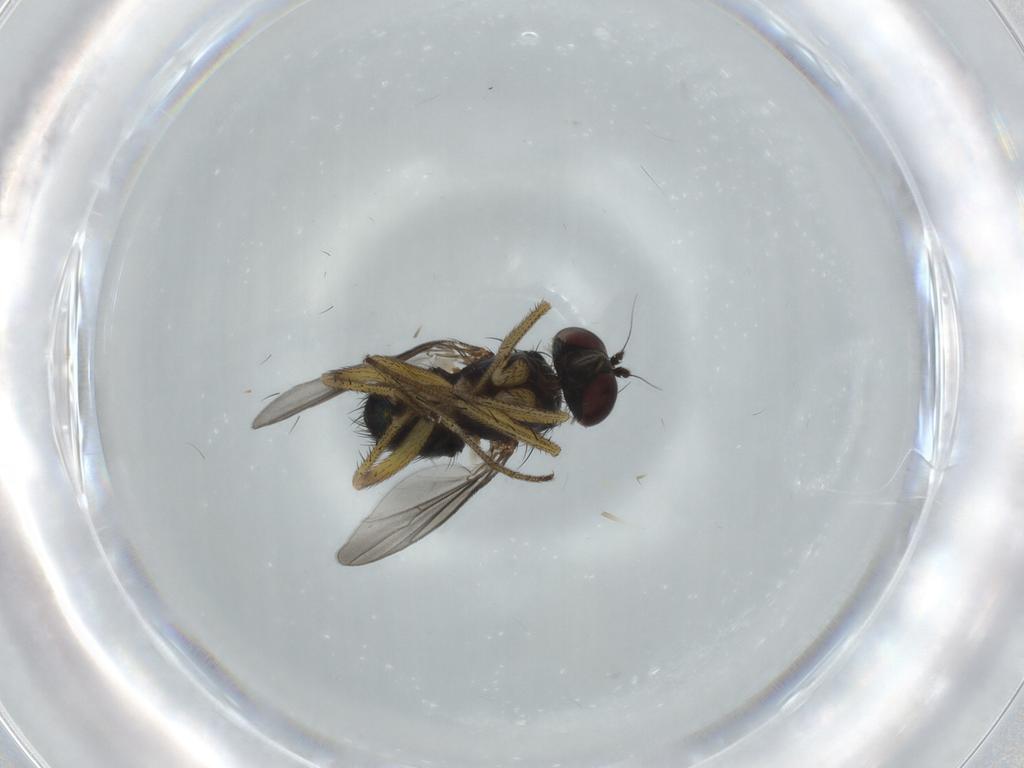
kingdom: Animalia
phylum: Arthropoda
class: Insecta
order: Diptera
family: Dolichopodidae
